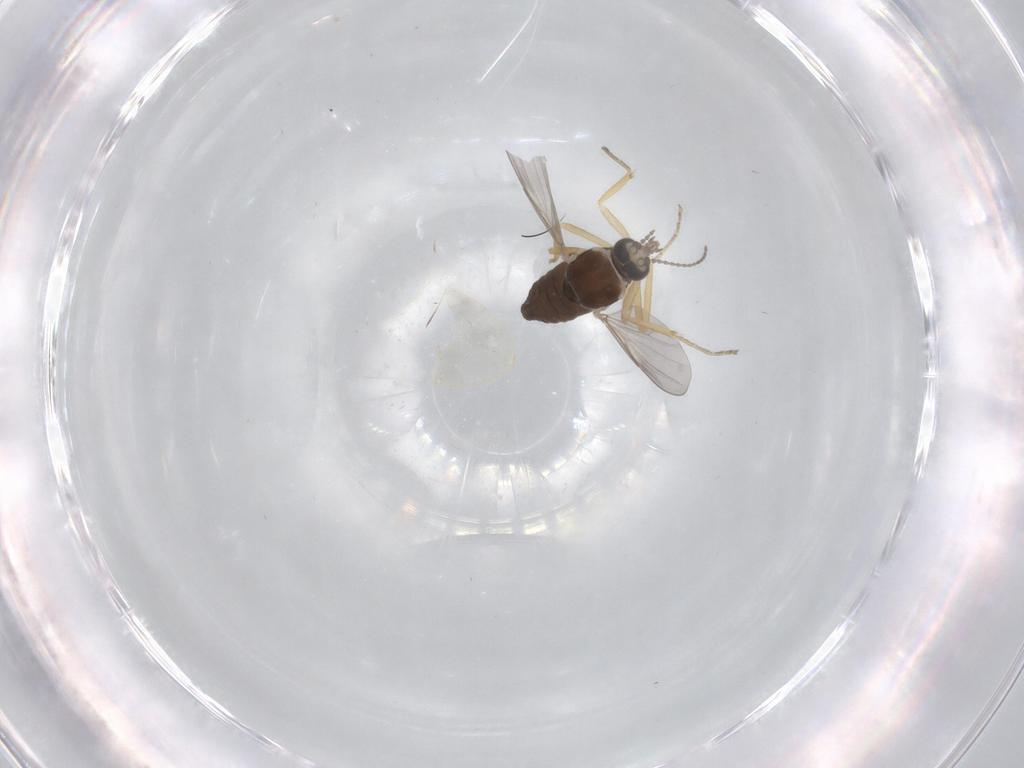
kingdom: Animalia
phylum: Arthropoda
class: Insecta
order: Diptera
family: Ceratopogonidae
